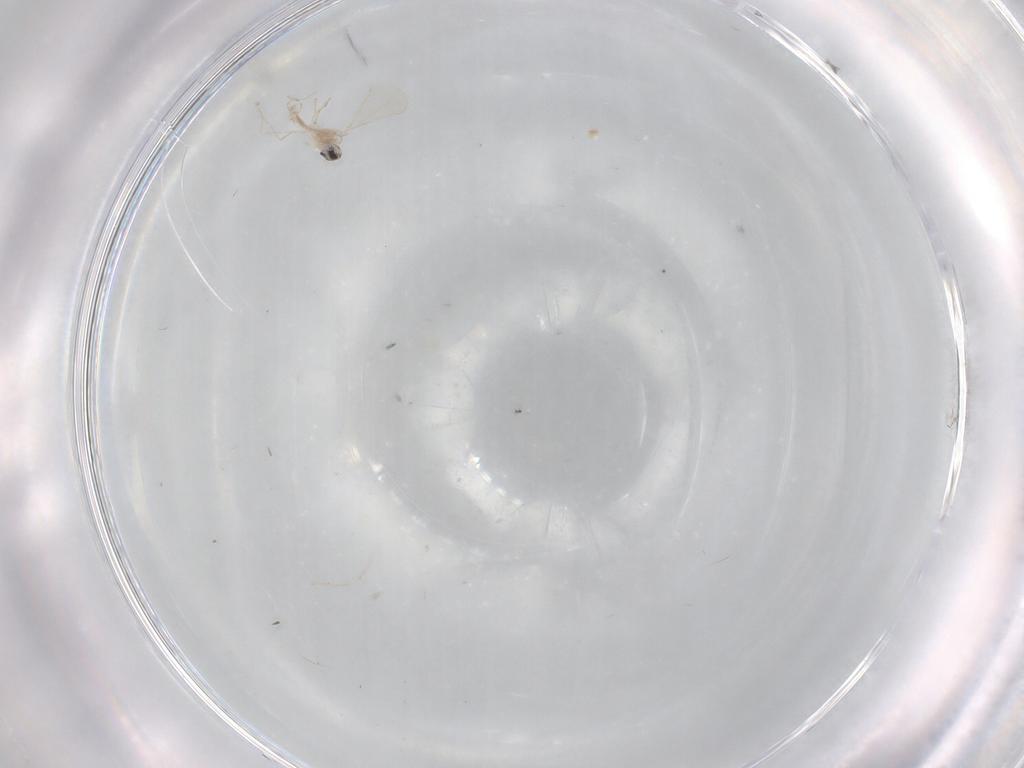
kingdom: Animalia
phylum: Arthropoda
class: Insecta
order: Diptera
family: Sciaridae
